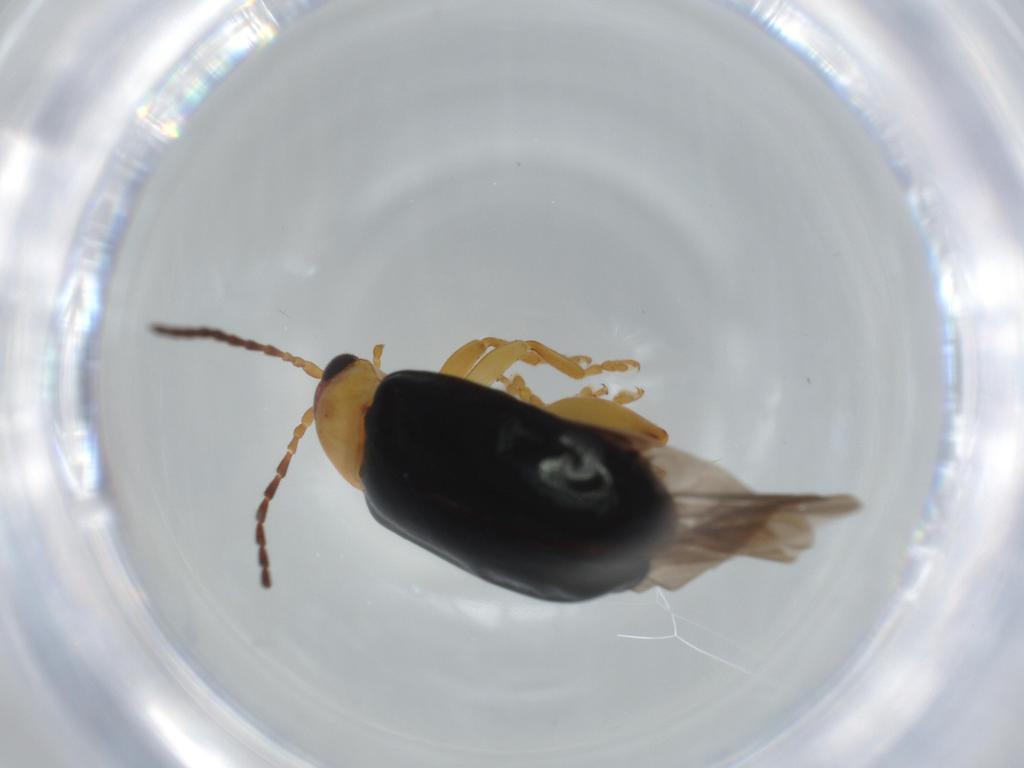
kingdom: Animalia
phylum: Arthropoda
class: Insecta
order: Coleoptera
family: Chrysomelidae
